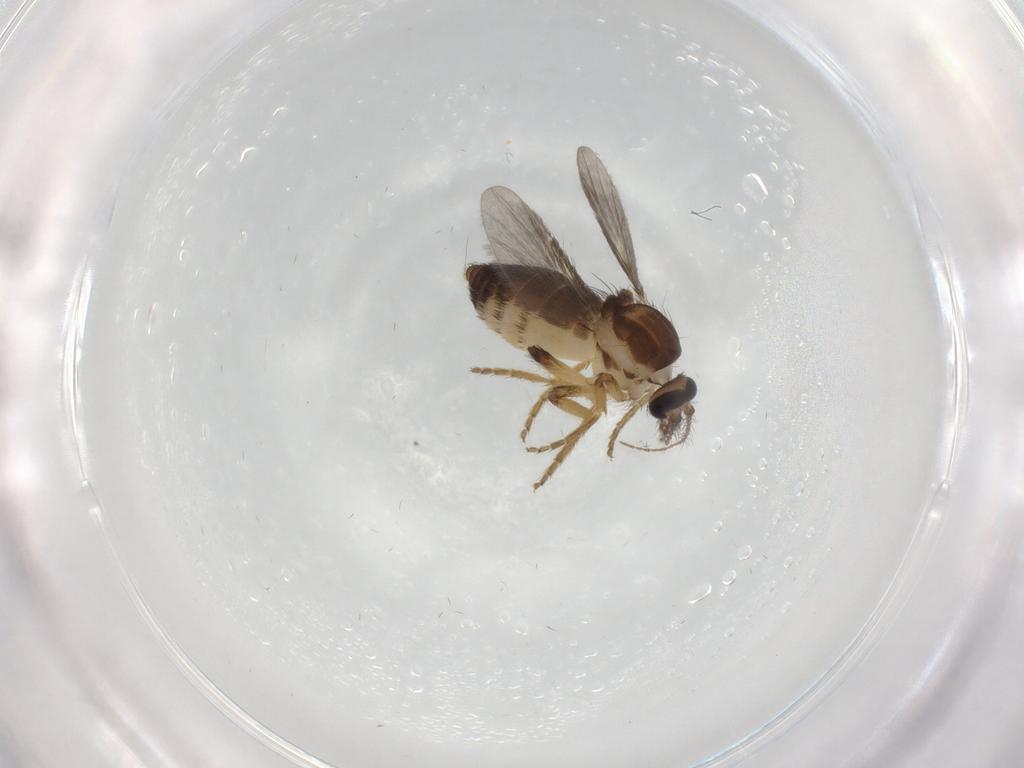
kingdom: Animalia
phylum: Arthropoda
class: Insecta
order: Diptera
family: Ceratopogonidae
